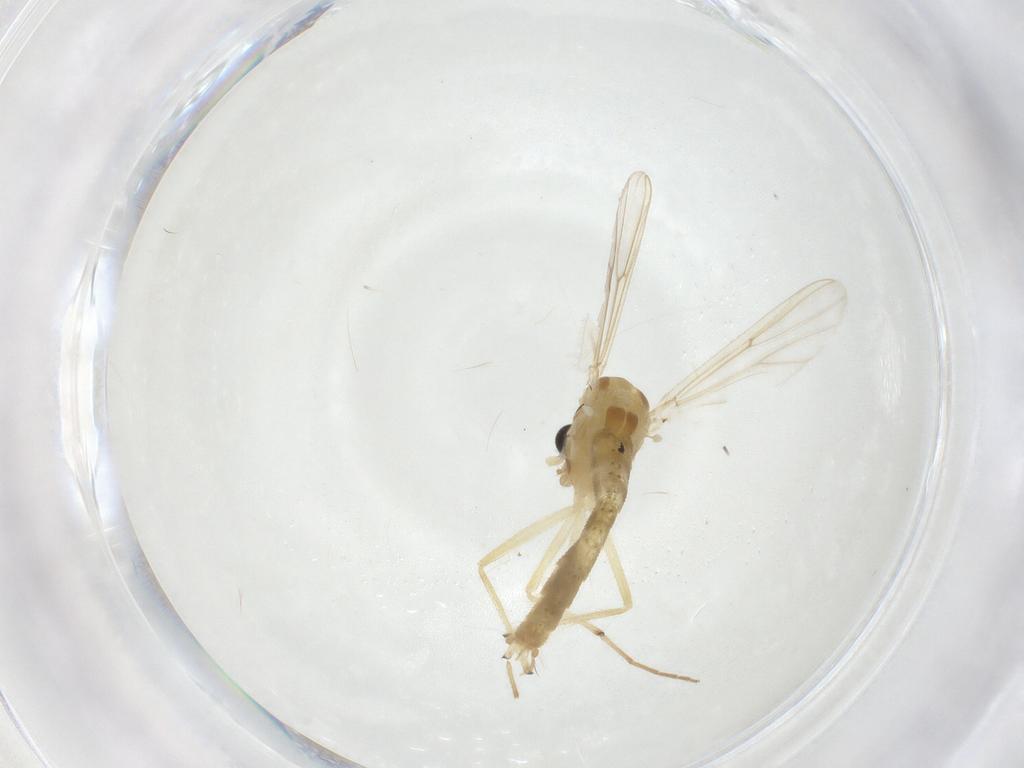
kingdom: Animalia
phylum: Arthropoda
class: Insecta
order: Diptera
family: Chironomidae
